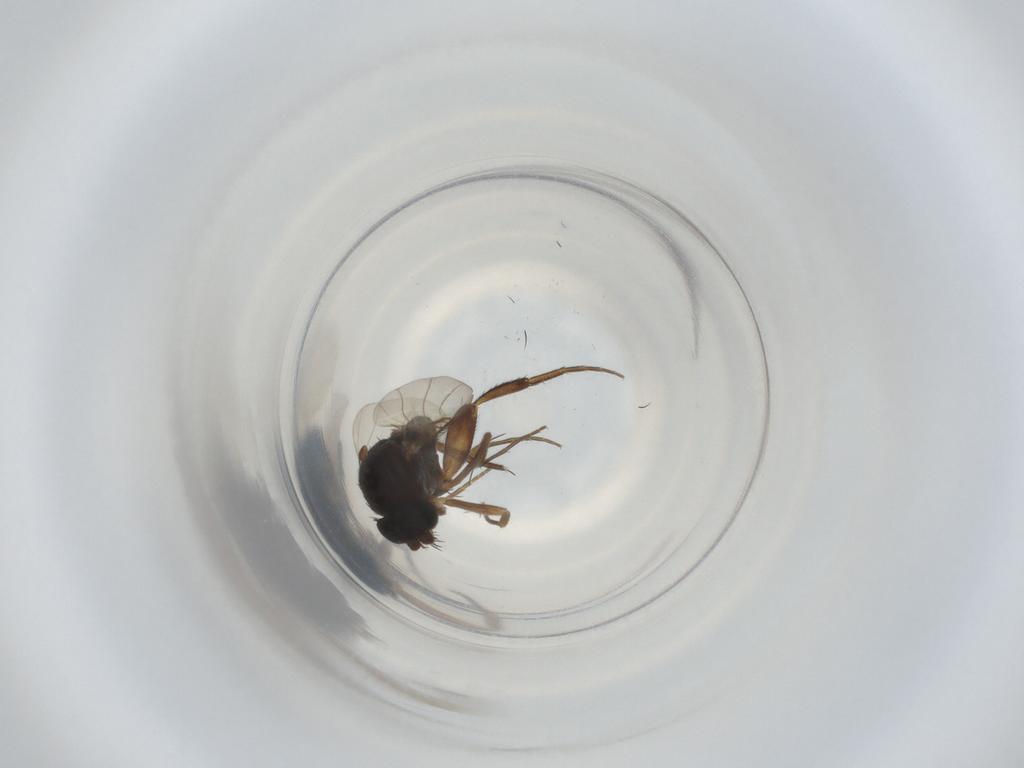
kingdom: Animalia
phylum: Arthropoda
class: Insecta
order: Diptera
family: Phoridae
